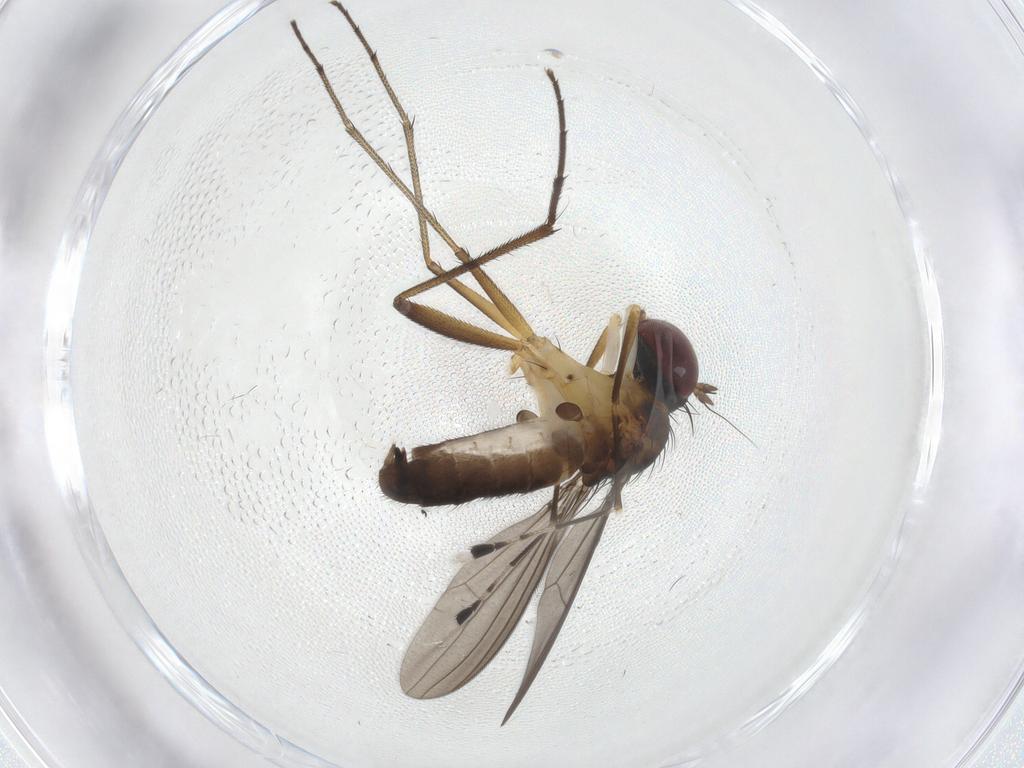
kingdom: Animalia
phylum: Arthropoda
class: Insecta
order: Diptera
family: Dolichopodidae
